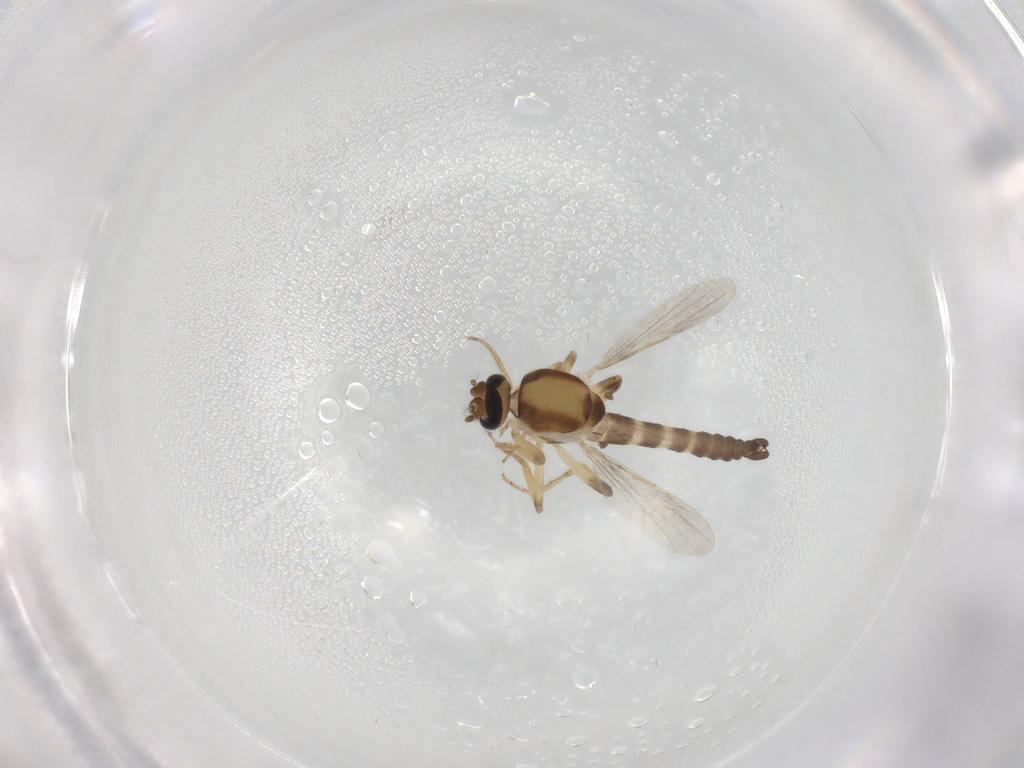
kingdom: Animalia
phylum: Arthropoda
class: Insecta
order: Diptera
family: Ceratopogonidae
